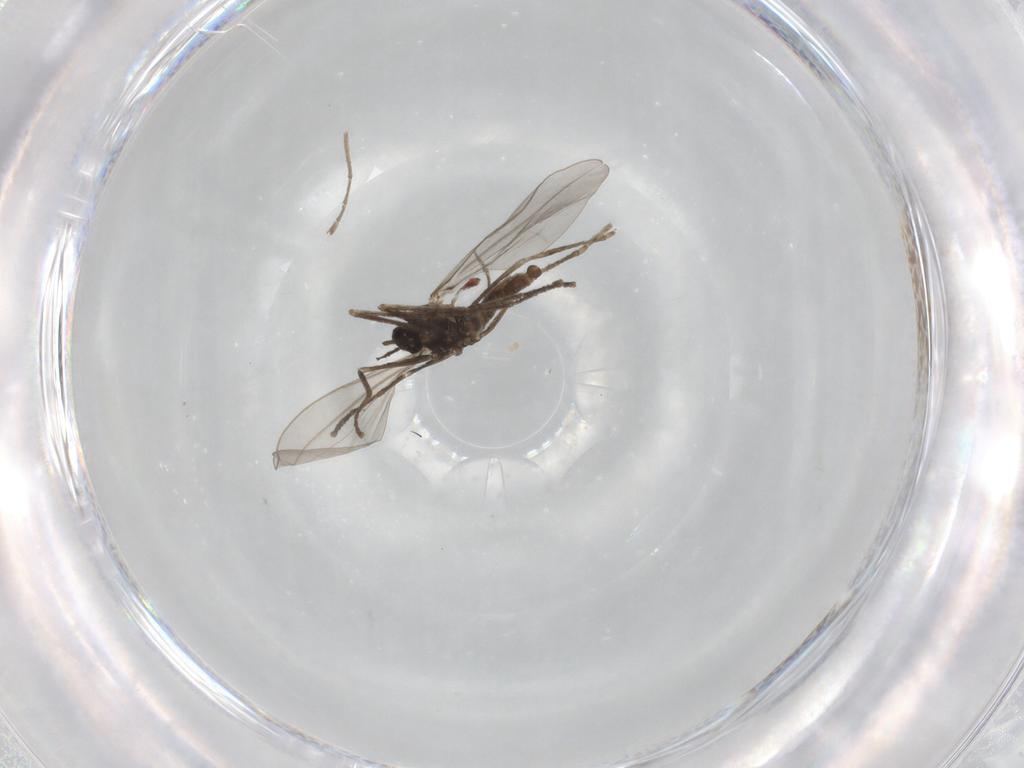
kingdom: Animalia
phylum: Arthropoda
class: Insecta
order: Diptera
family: Cecidomyiidae
